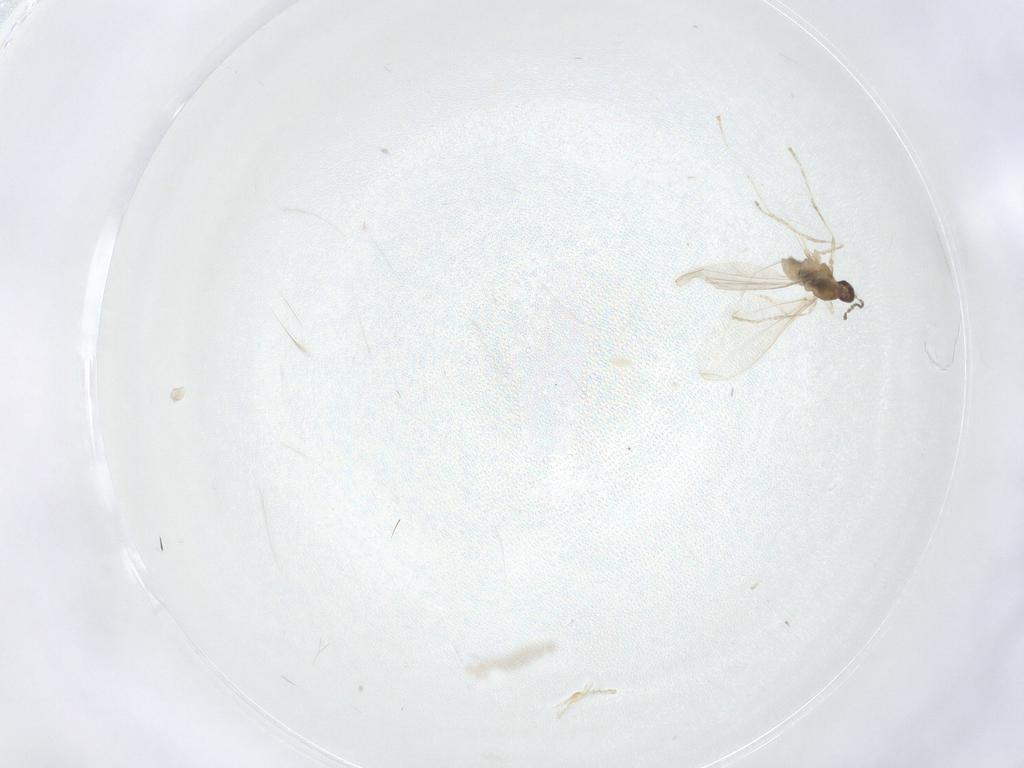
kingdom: Animalia
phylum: Arthropoda
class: Insecta
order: Diptera
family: Cecidomyiidae
